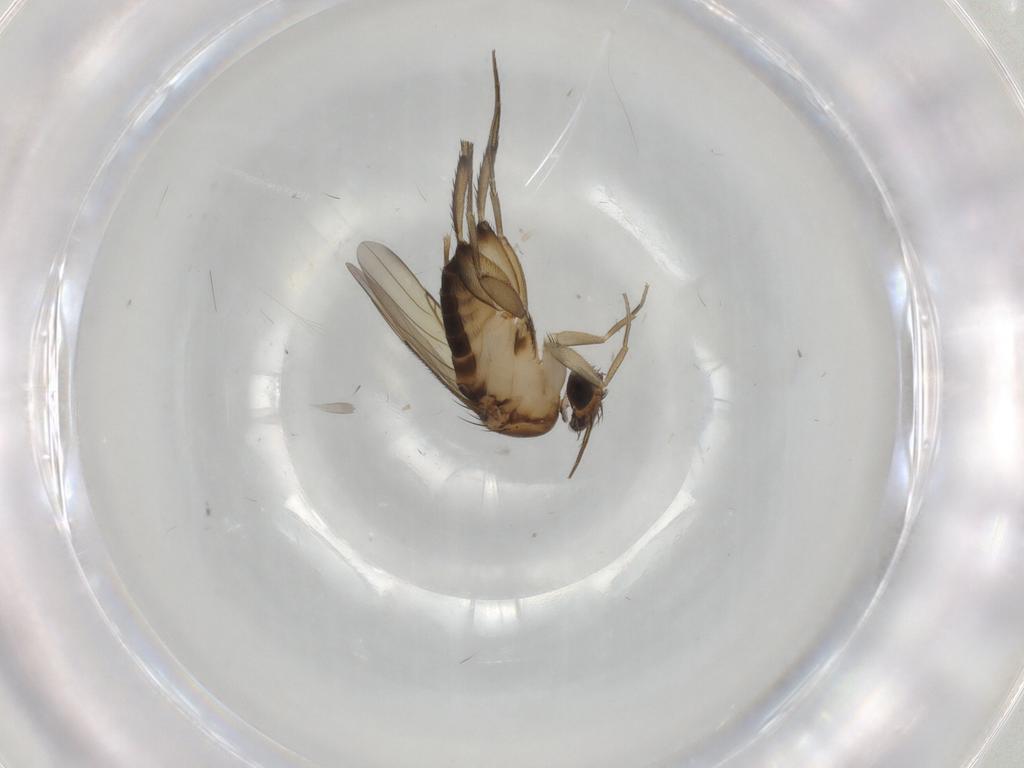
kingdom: Animalia
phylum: Arthropoda
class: Insecta
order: Diptera
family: Phoridae
